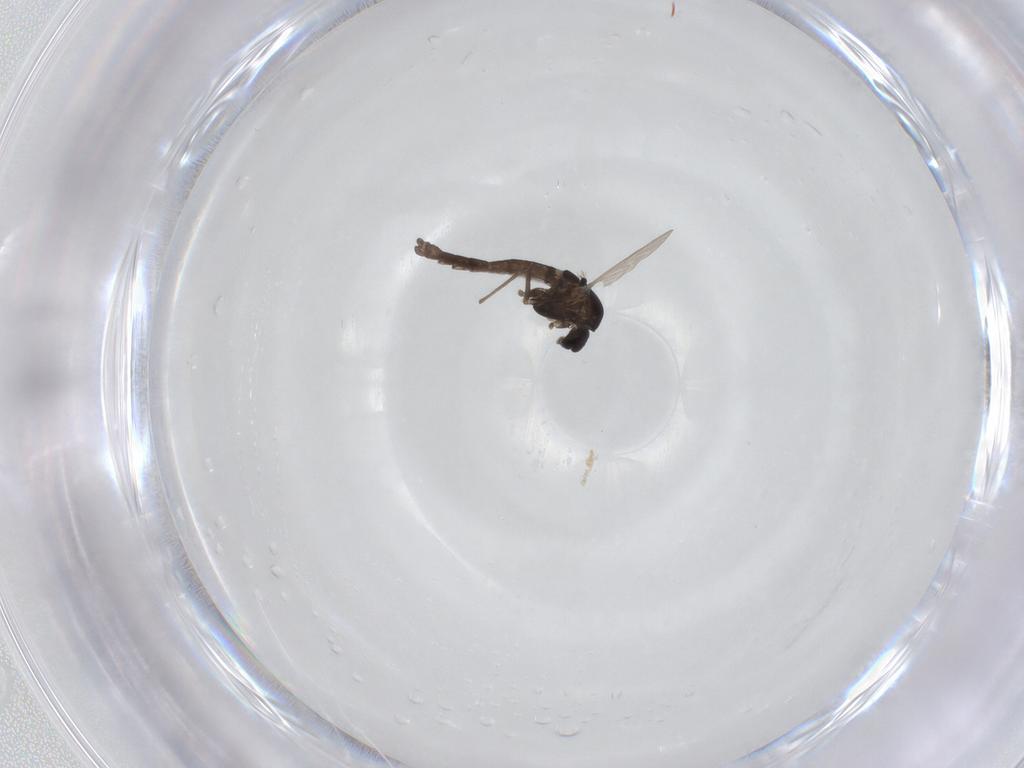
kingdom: Animalia
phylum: Arthropoda
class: Insecta
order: Diptera
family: Chironomidae
